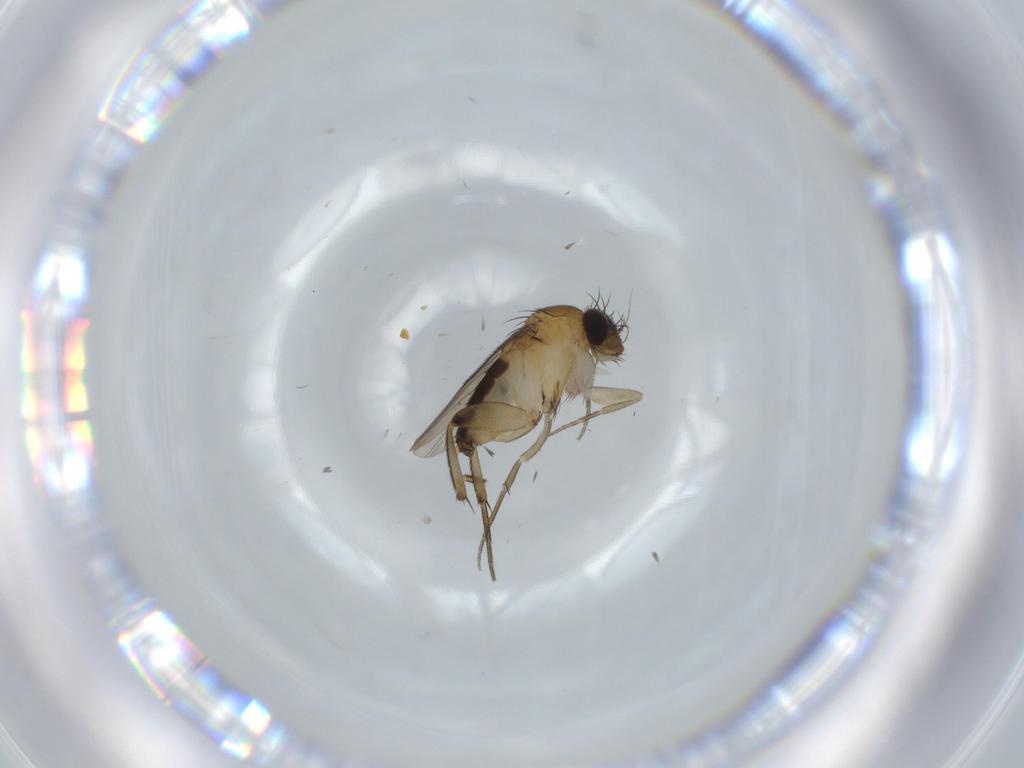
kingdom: Animalia
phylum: Arthropoda
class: Insecta
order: Diptera
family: Phoridae
